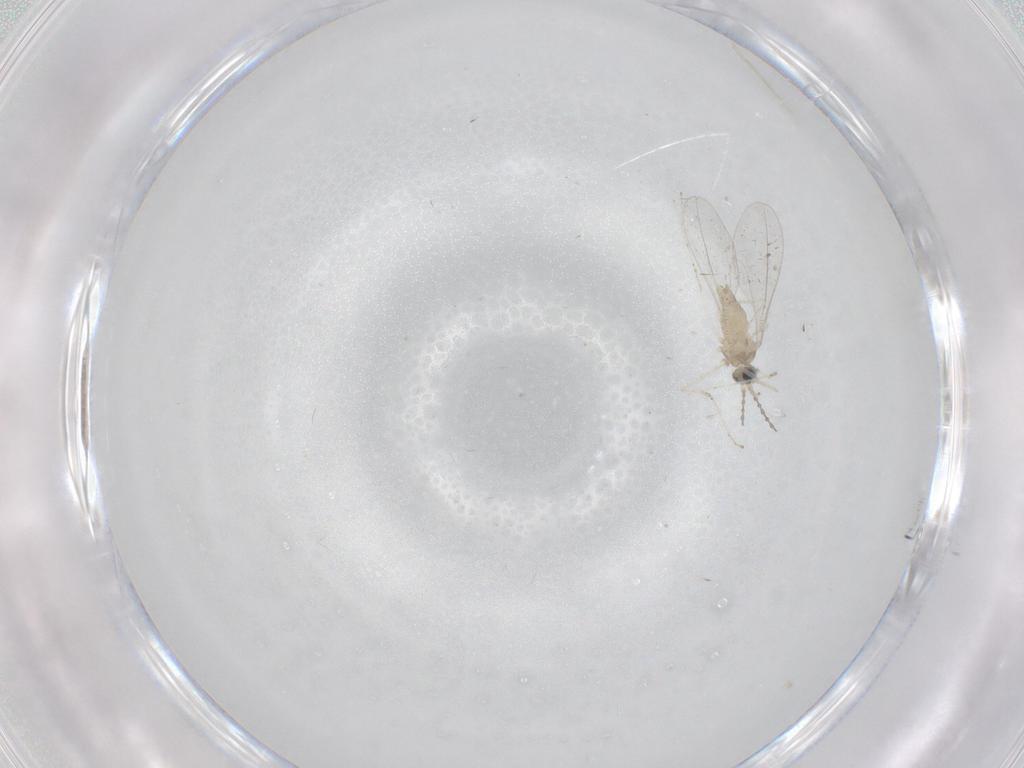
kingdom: Animalia
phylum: Arthropoda
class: Insecta
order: Diptera
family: Cecidomyiidae
